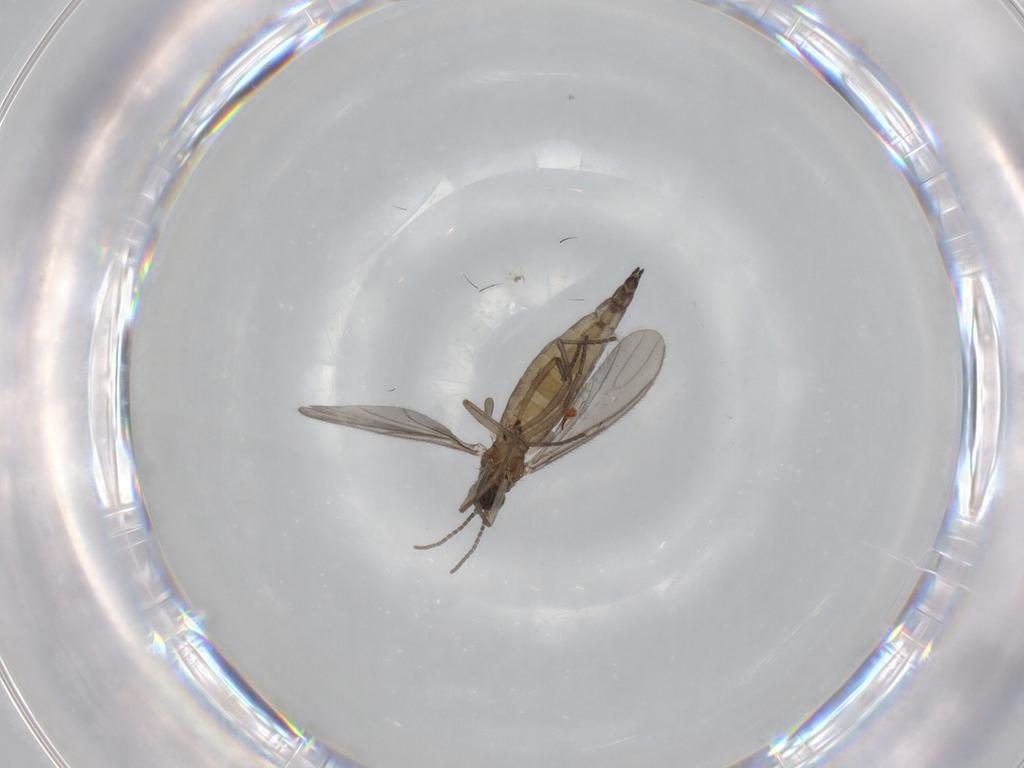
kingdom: Animalia
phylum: Arthropoda
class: Insecta
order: Diptera
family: Sciaridae
